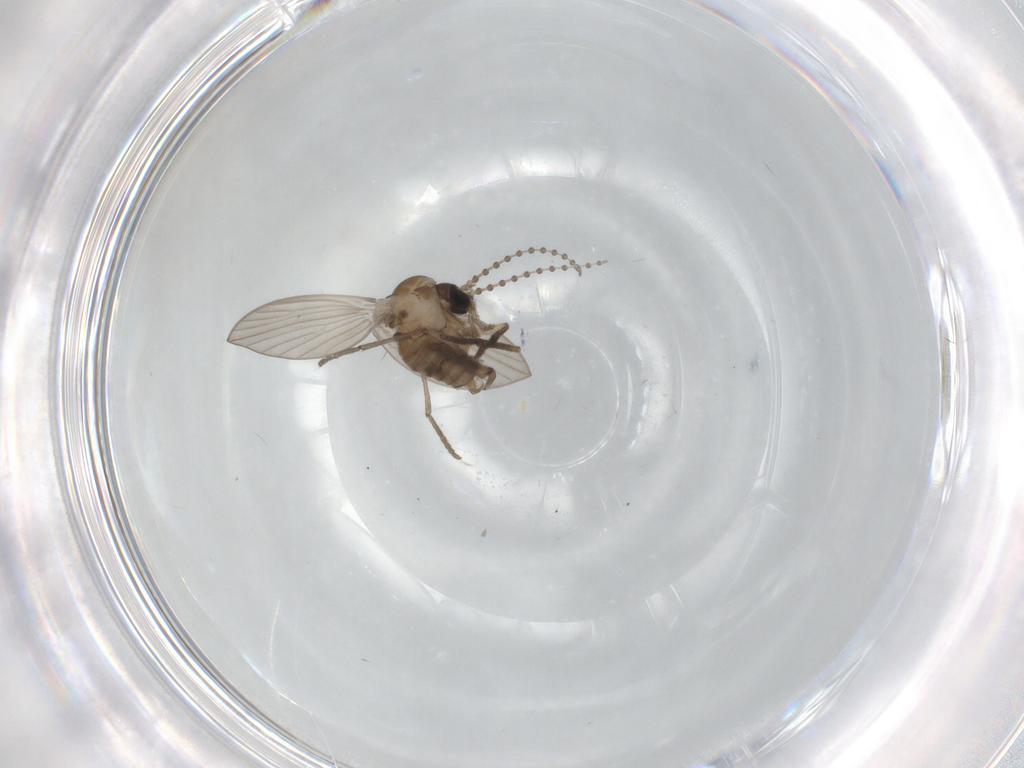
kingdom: Animalia
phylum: Arthropoda
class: Insecta
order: Diptera
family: Psychodidae
